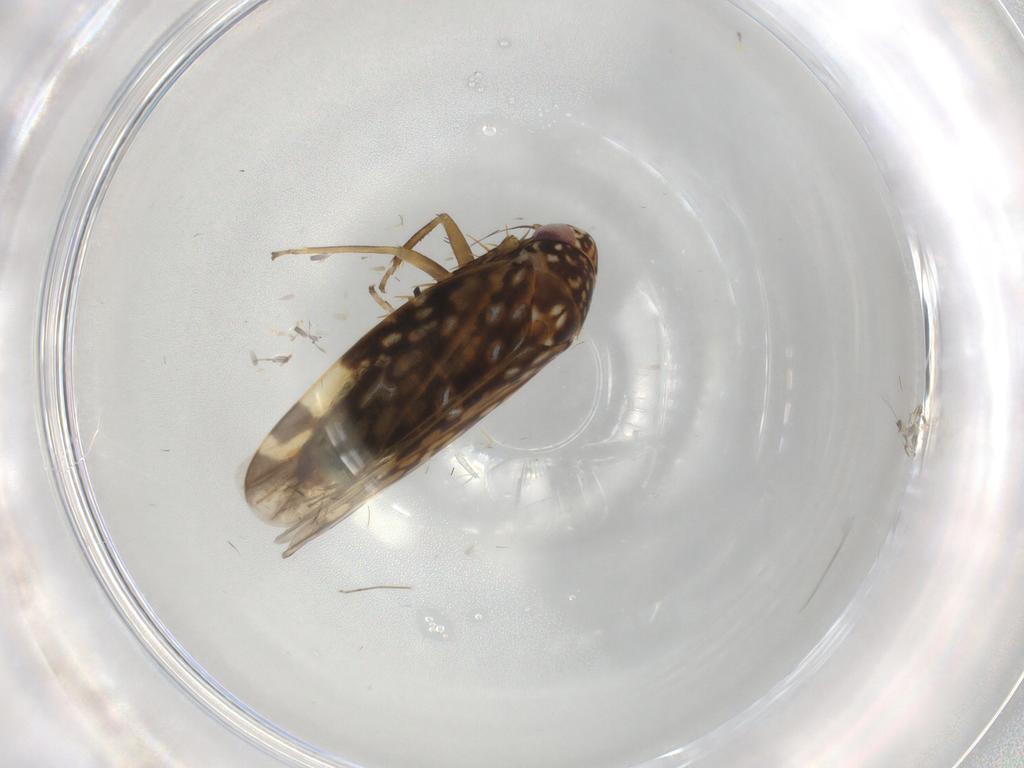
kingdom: Animalia
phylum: Arthropoda
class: Insecta
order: Hemiptera
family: Cicadellidae
